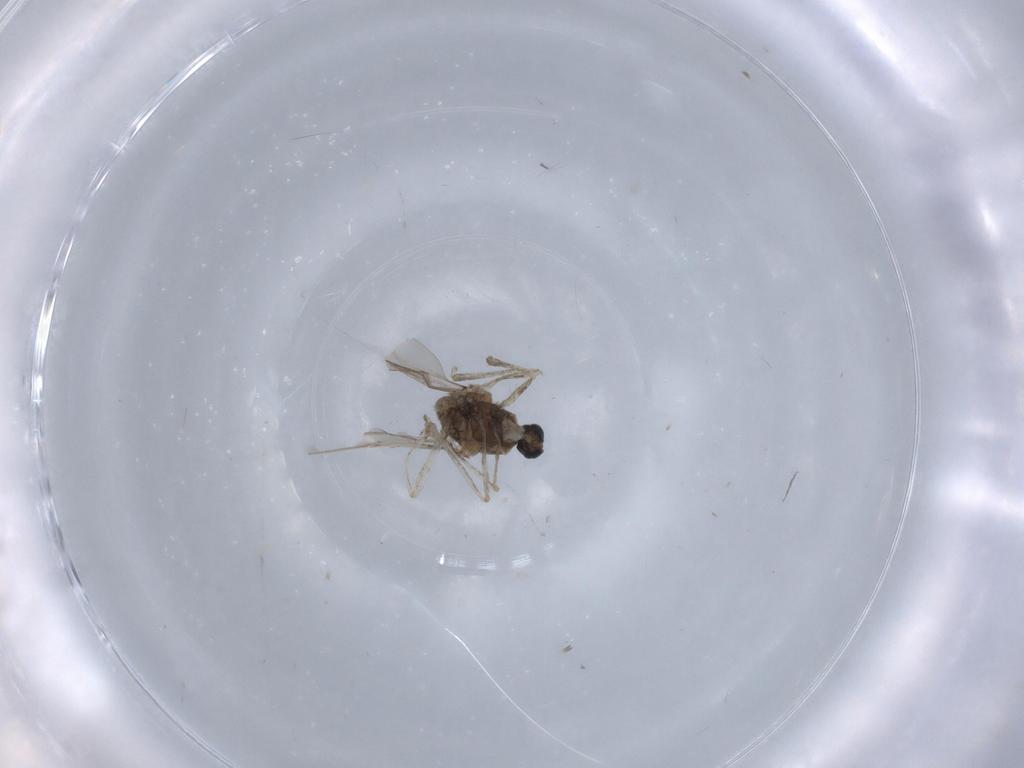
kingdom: Animalia
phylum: Arthropoda
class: Insecta
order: Diptera
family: Cecidomyiidae
